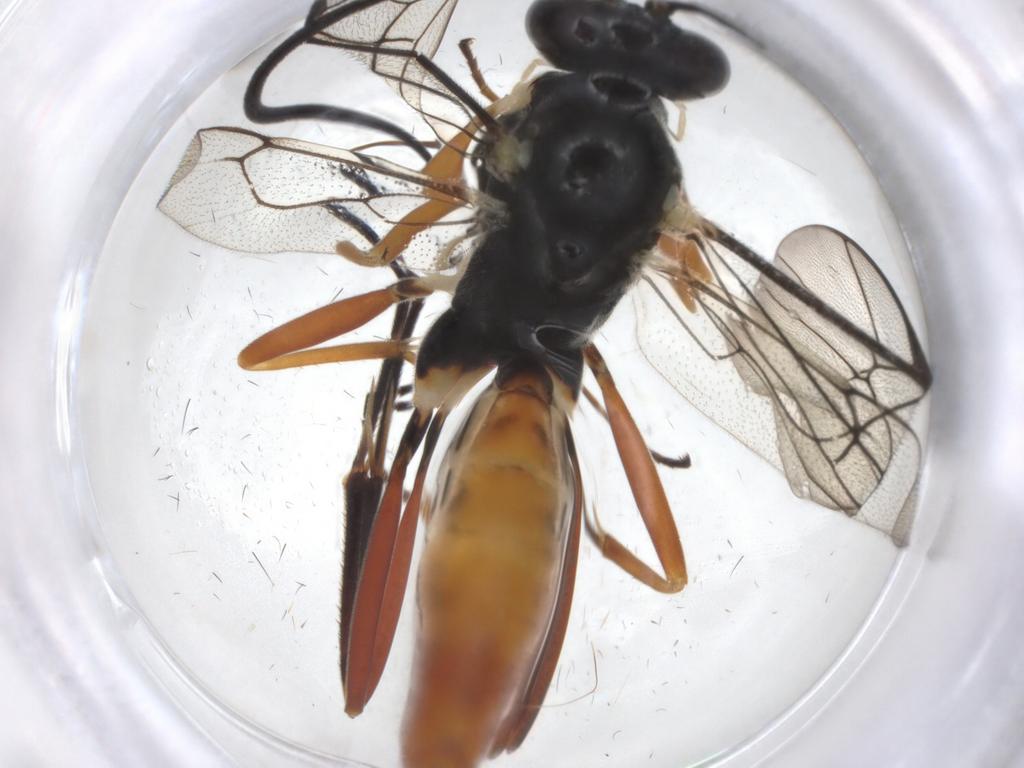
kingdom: Animalia
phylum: Arthropoda
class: Insecta
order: Hymenoptera
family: Ichneumonidae
